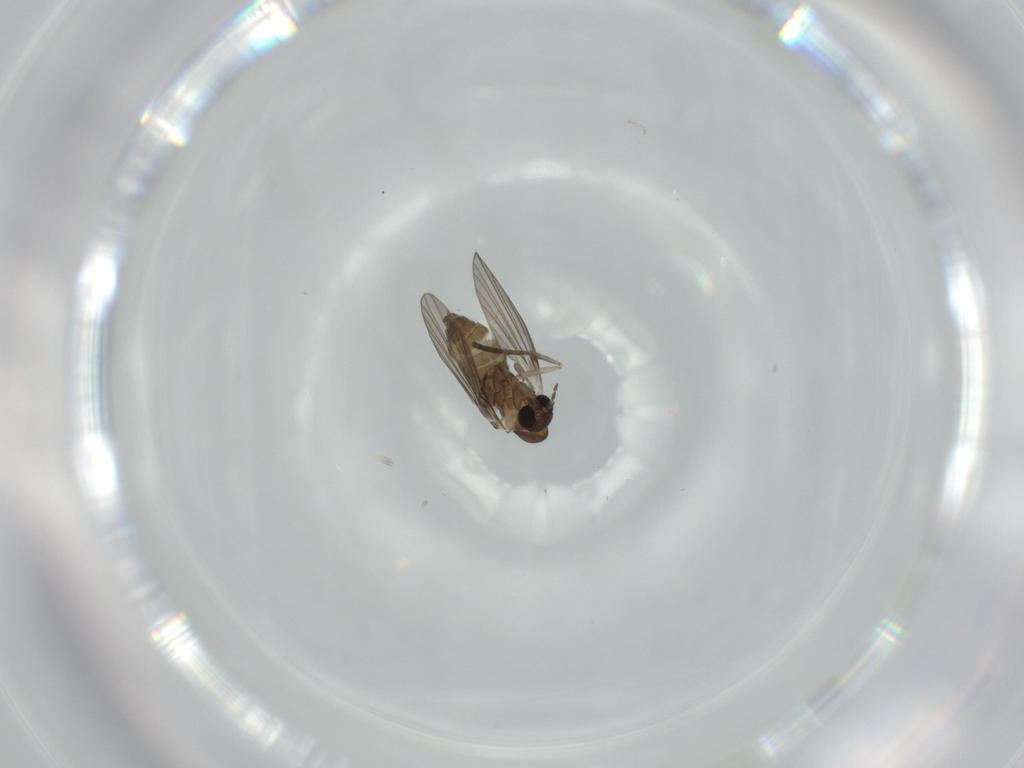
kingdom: Animalia
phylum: Arthropoda
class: Insecta
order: Diptera
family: Psychodidae
